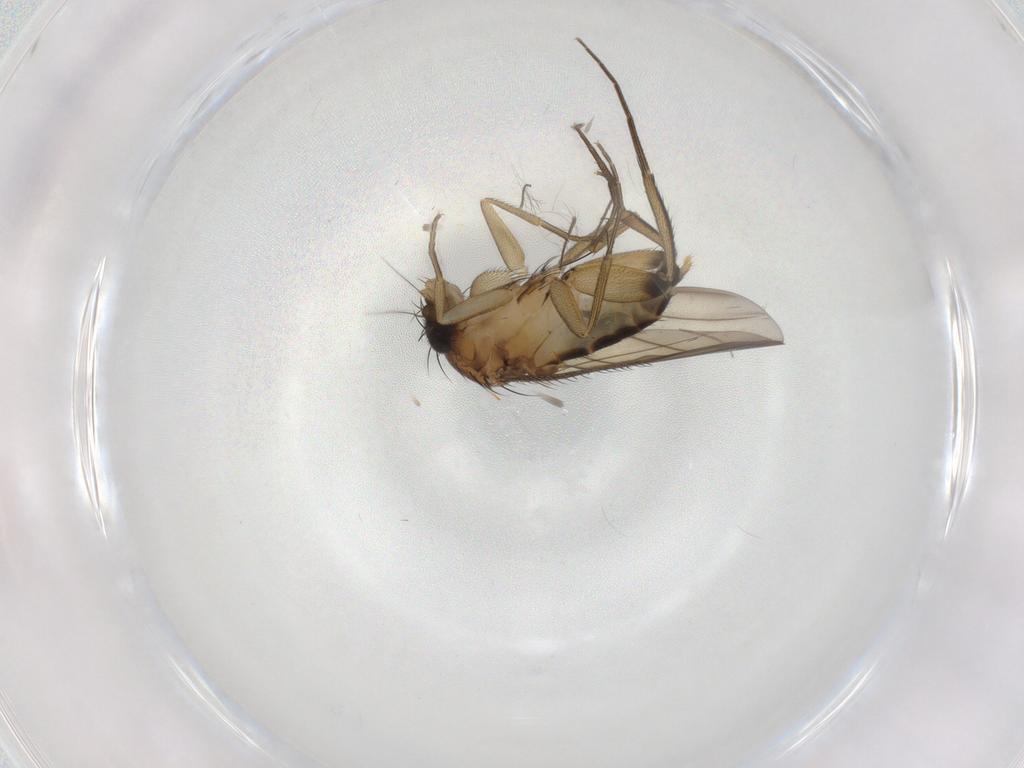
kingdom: Animalia
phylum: Arthropoda
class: Insecta
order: Diptera
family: Phoridae
